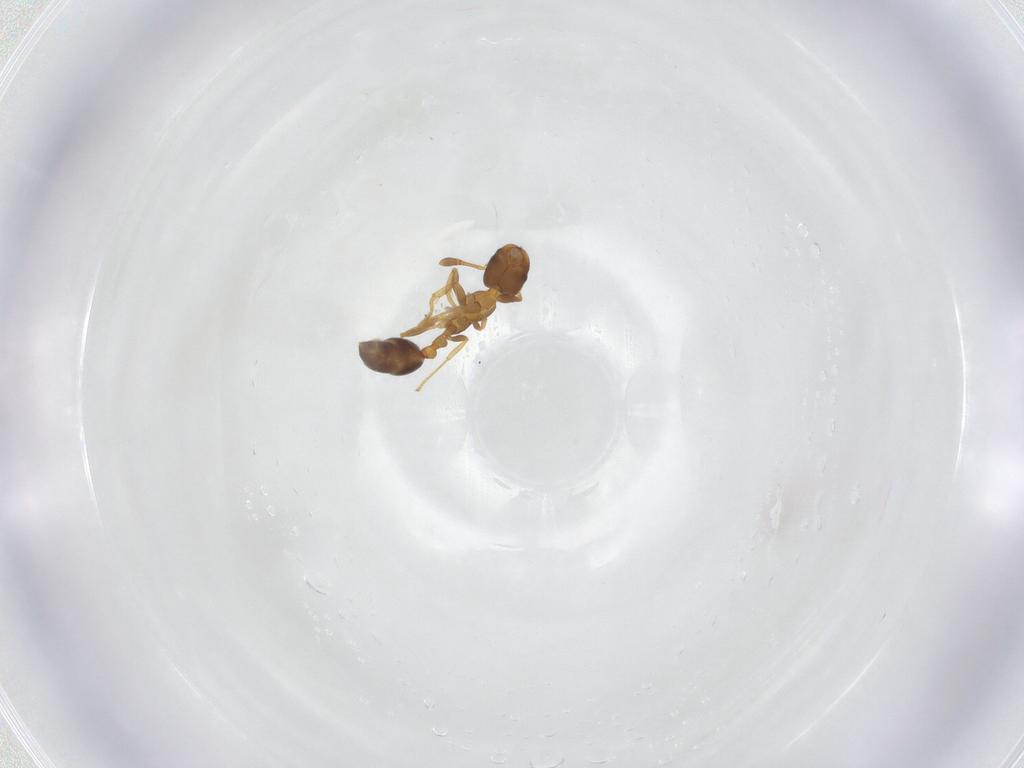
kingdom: Animalia
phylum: Arthropoda
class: Insecta
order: Hymenoptera
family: Formicidae
